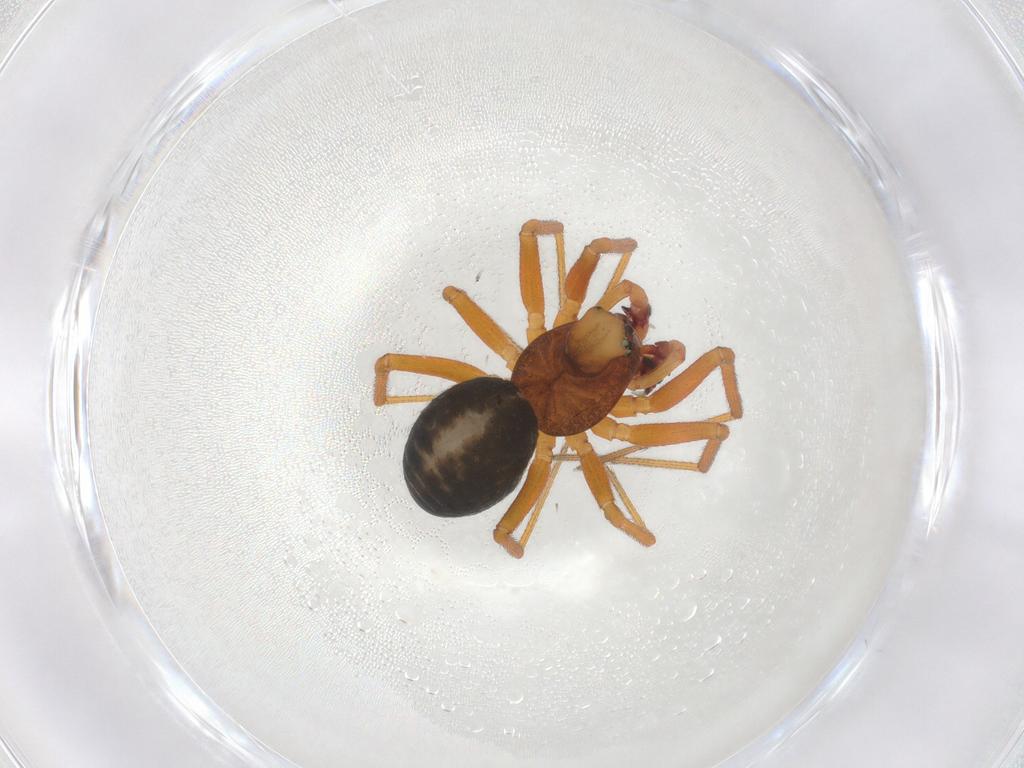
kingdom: Animalia
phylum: Arthropoda
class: Arachnida
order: Araneae
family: Linyphiidae
